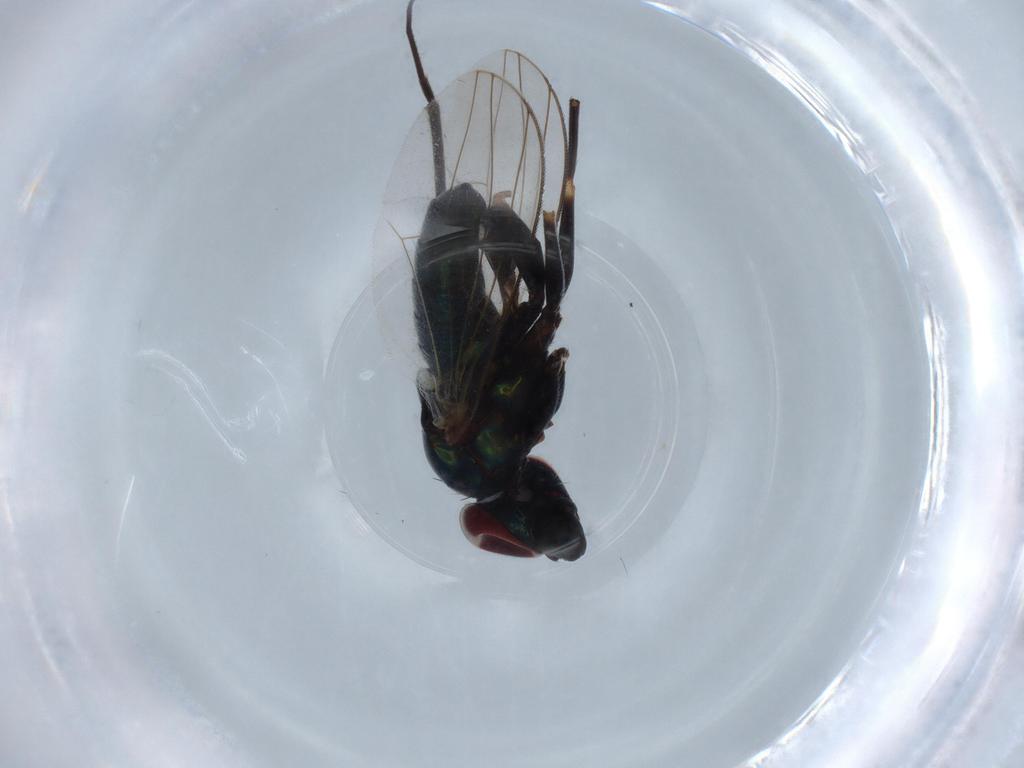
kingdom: Animalia
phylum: Arthropoda
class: Insecta
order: Diptera
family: Dolichopodidae
